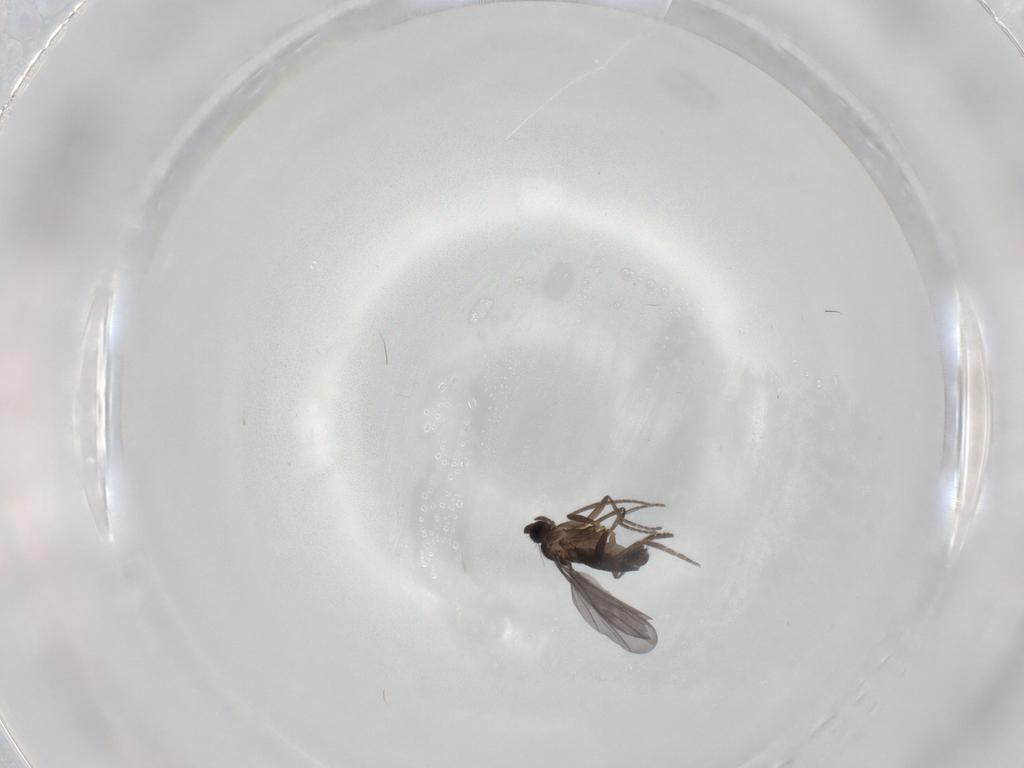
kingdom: Animalia
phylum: Arthropoda
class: Insecta
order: Diptera
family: Phoridae
